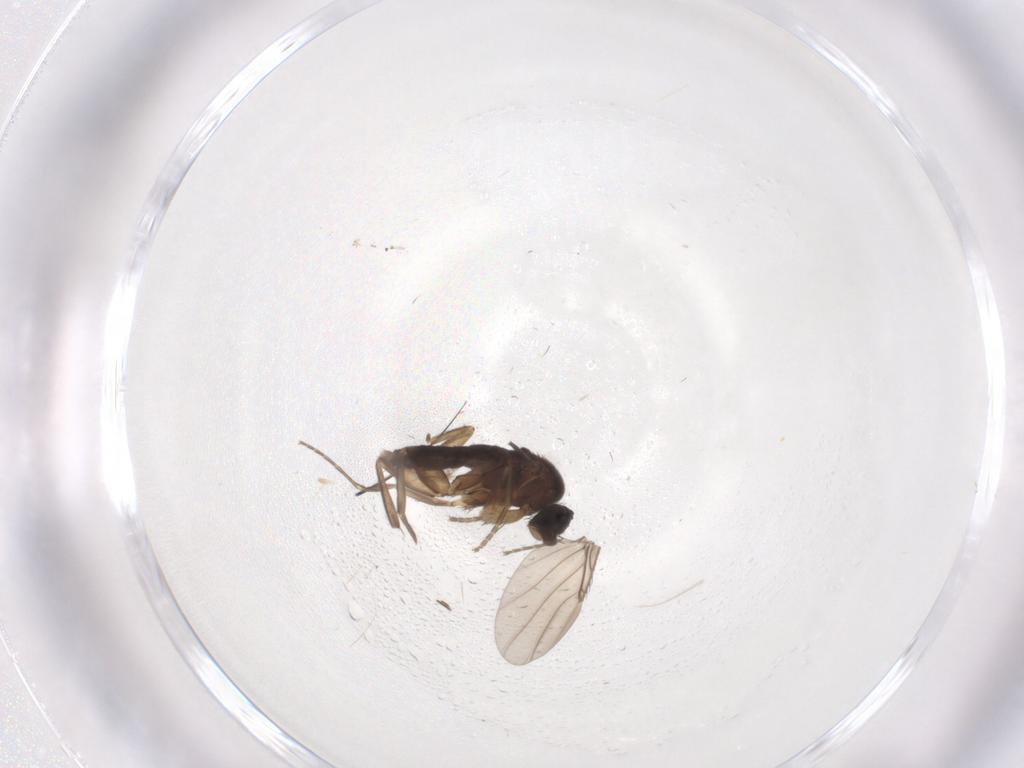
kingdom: Animalia
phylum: Arthropoda
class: Insecta
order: Diptera
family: Phoridae
